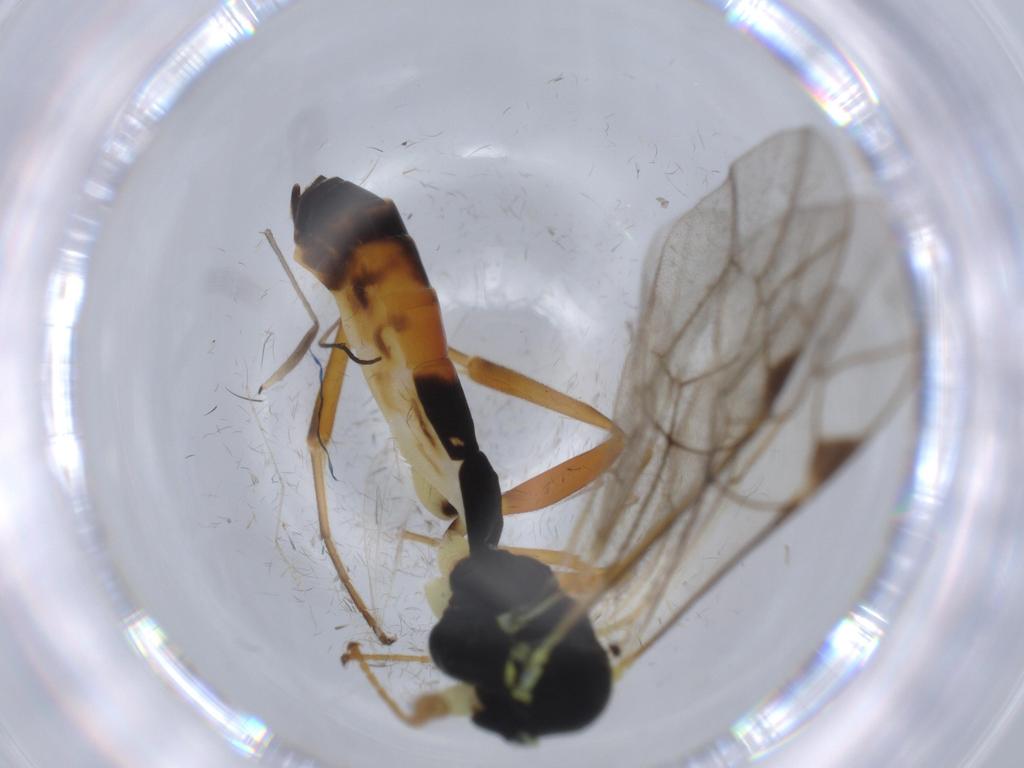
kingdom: Animalia
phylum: Arthropoda
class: Insecta
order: Hymenoptera
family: Ichneumonidae
